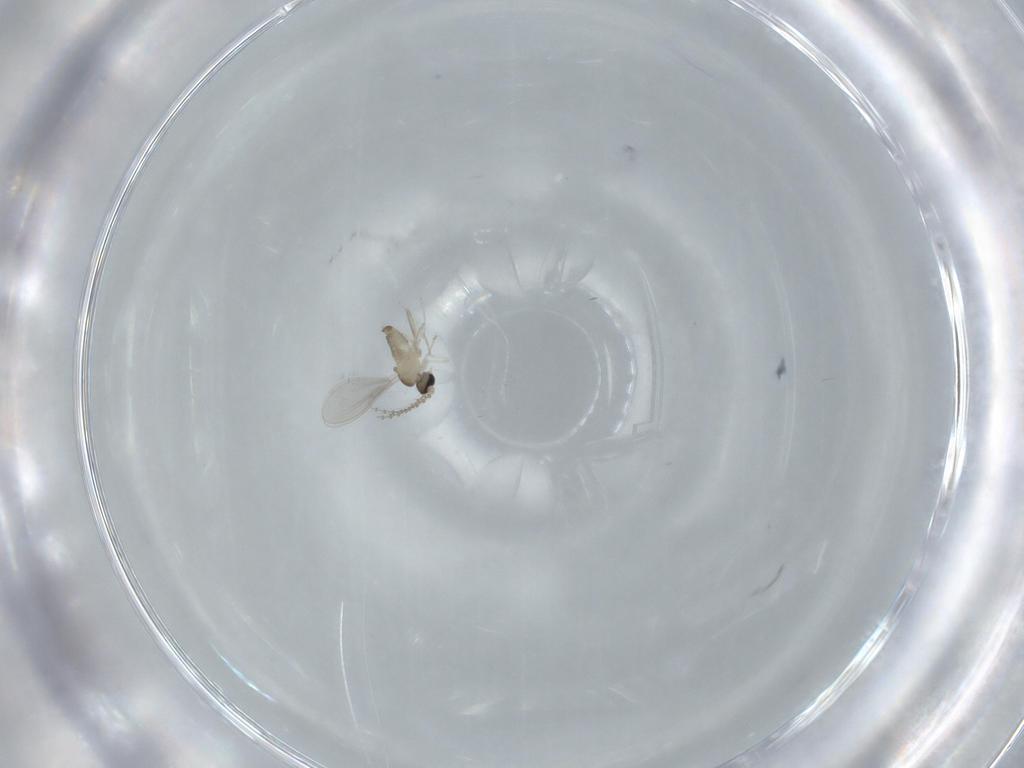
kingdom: Animalia
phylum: Arthropoda
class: Insecta
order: Diptera
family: Cecidomyiidae
